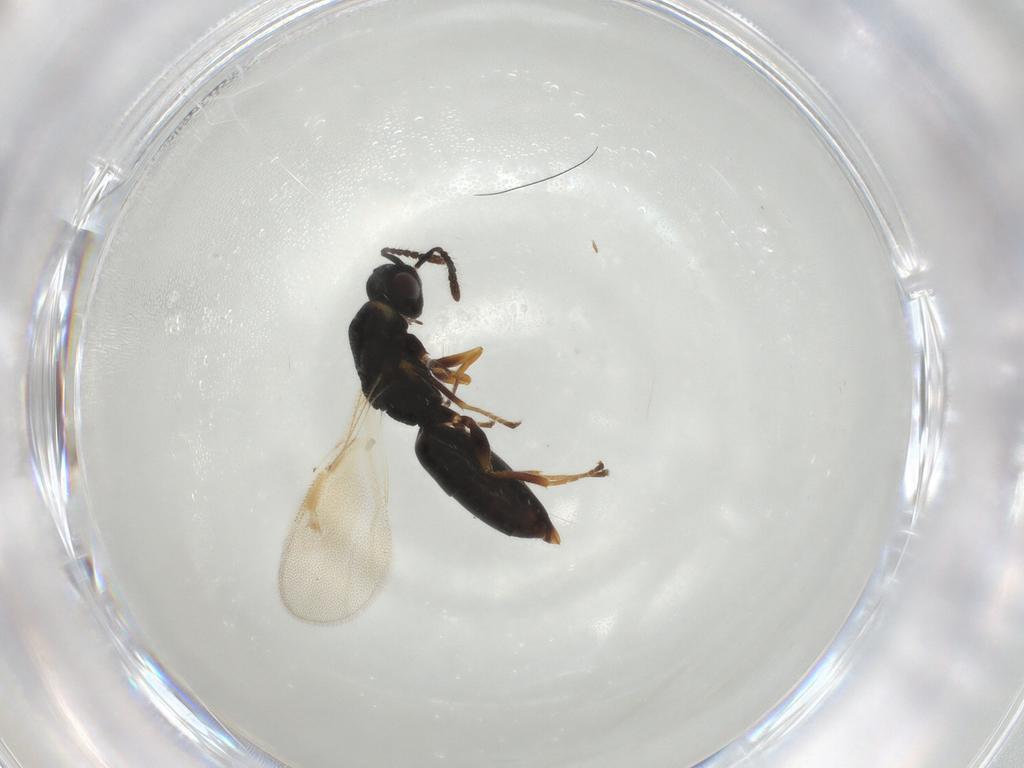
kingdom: Animalia
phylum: Arthropoda
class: Insecta
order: Hymenoptera
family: Eurytomidae
